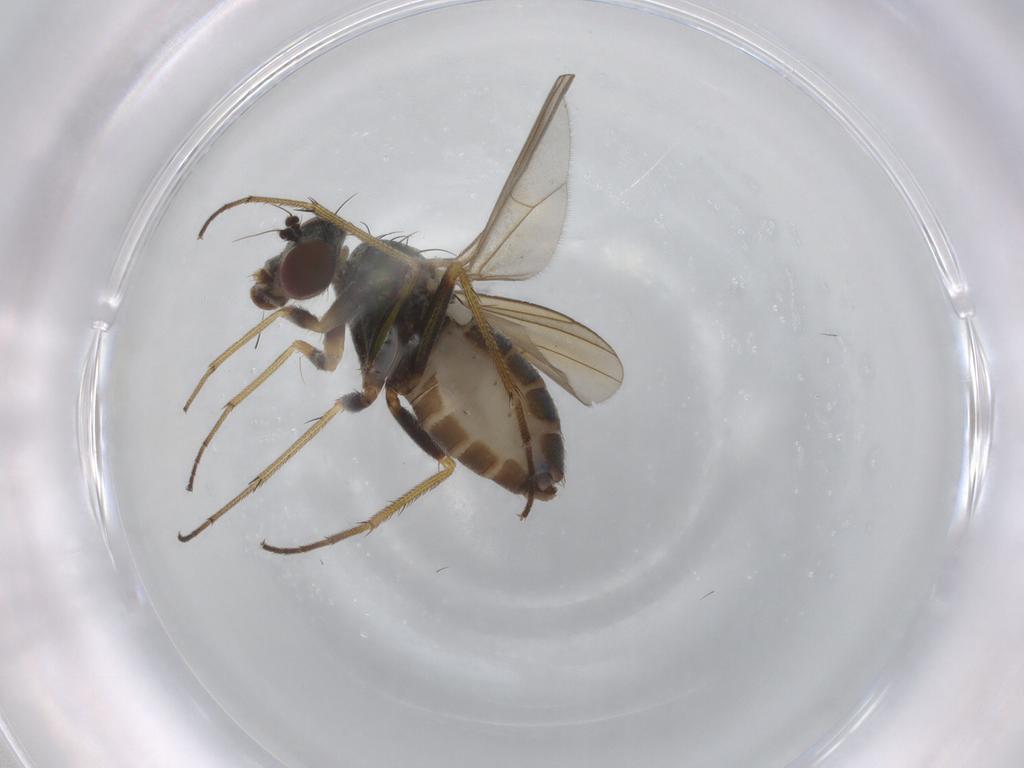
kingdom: Animalia
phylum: Arthropoda
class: Insecta
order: Diptera
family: Dolichopodidae
